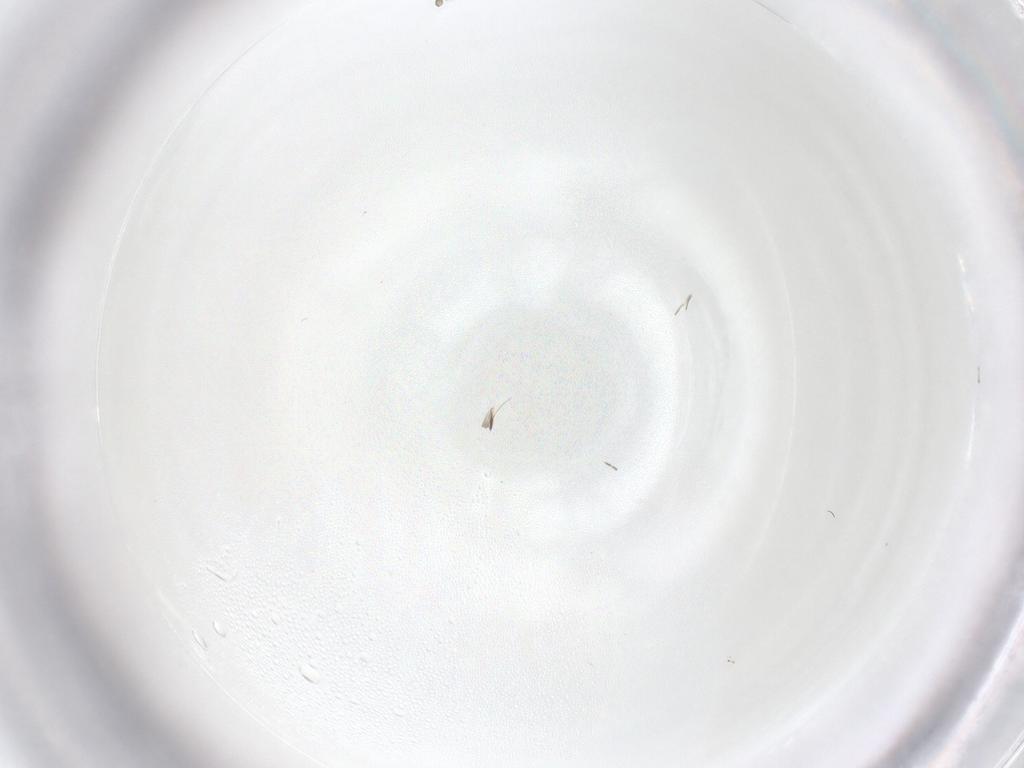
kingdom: Animalia
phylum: Arthropoda
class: Insecta
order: Diptera
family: Psychodidae
